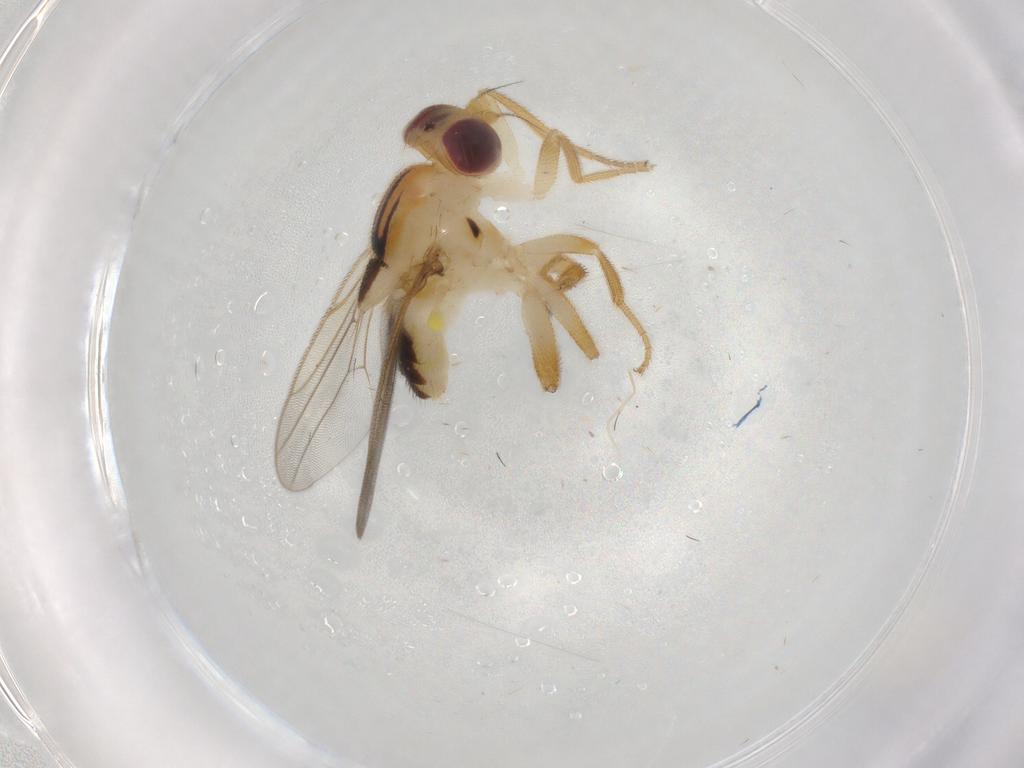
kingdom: Animalia
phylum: Arthropoda
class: Insecta
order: Diptera
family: Chloropidae
